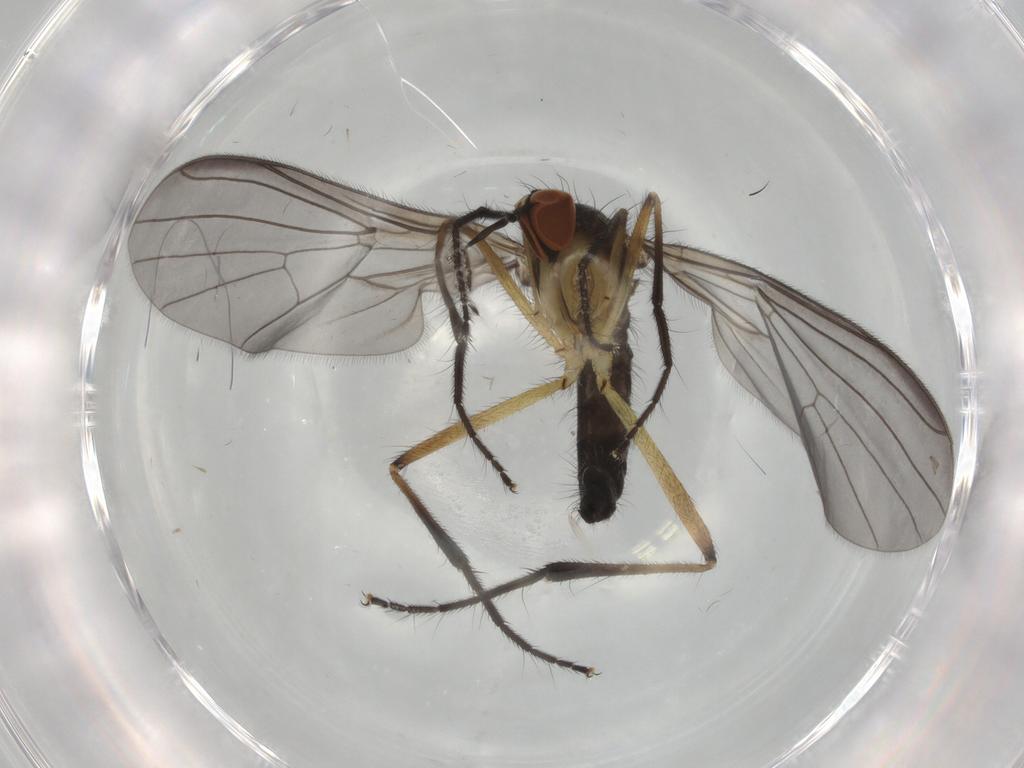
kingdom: Animalia
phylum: Arthropoda
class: Insecta
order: Diptera
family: Empididae
